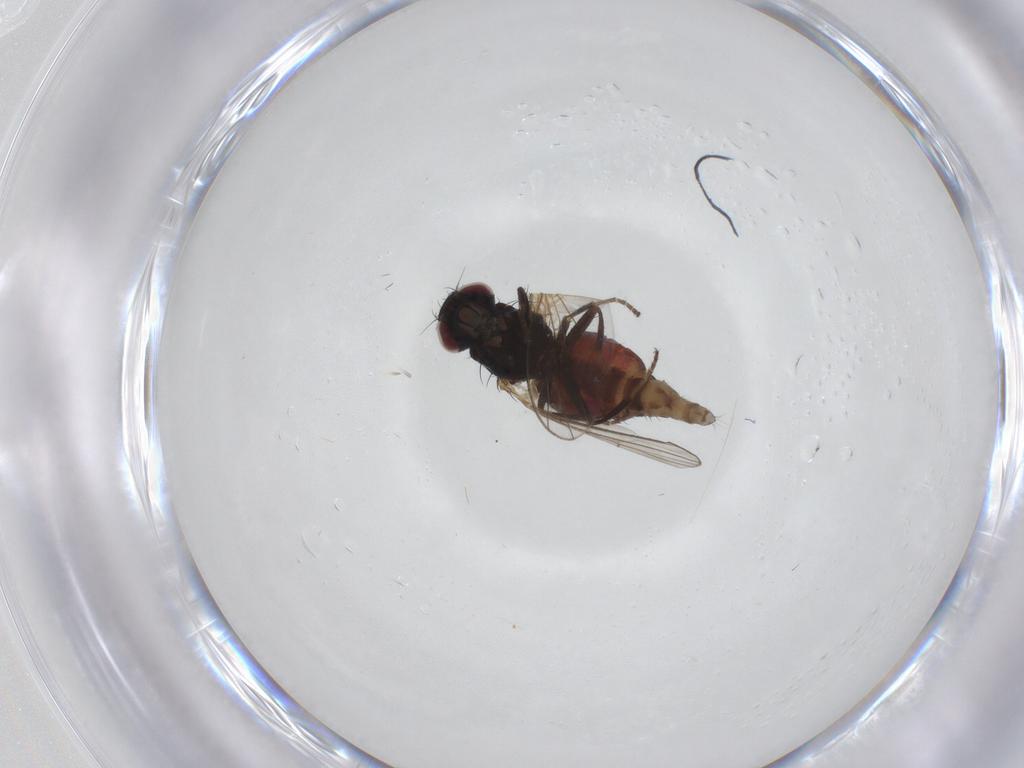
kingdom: Animalia
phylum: Arthropoda
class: Insecta
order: Diptera
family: Carnidae
